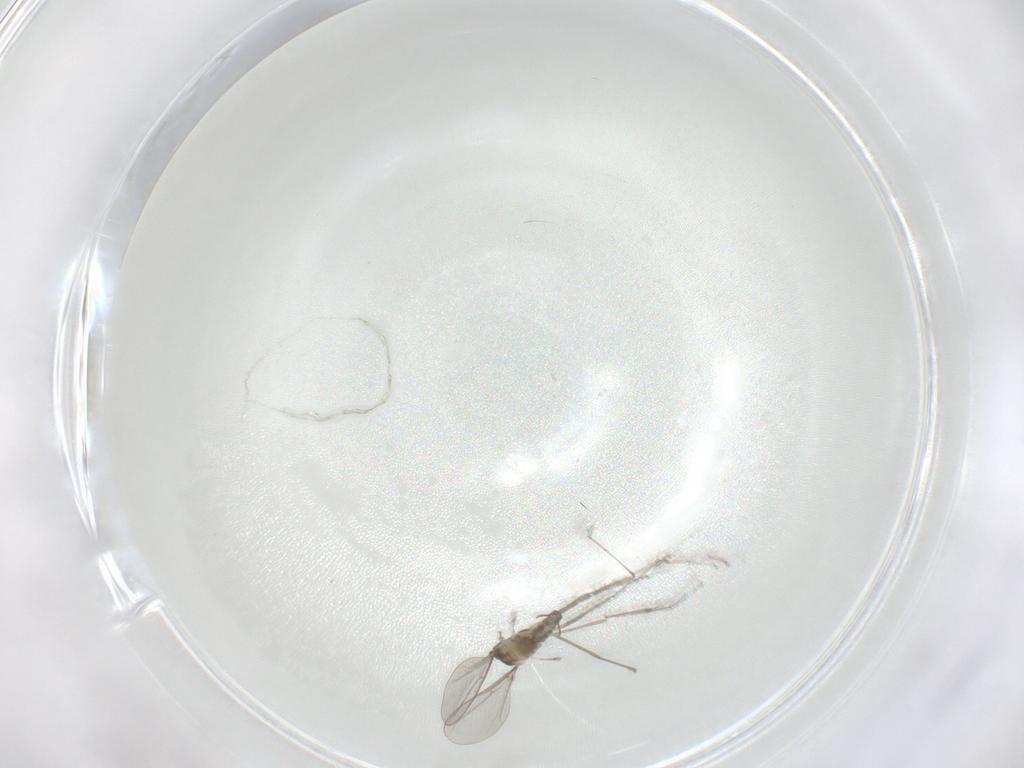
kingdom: Animalia
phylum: Arthropoda
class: Insecta
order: Diptera
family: Cecidomyiidae
